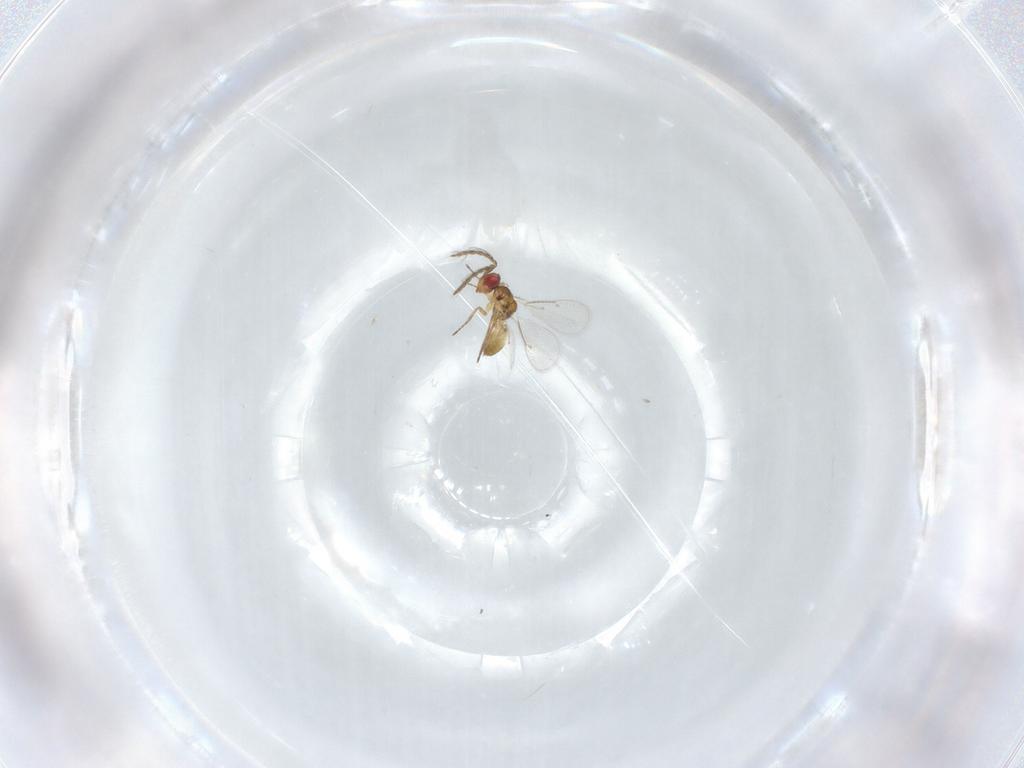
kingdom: Animalia
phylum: Arthropoda
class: Insecta
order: Hymenoptera
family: Eulophidae
